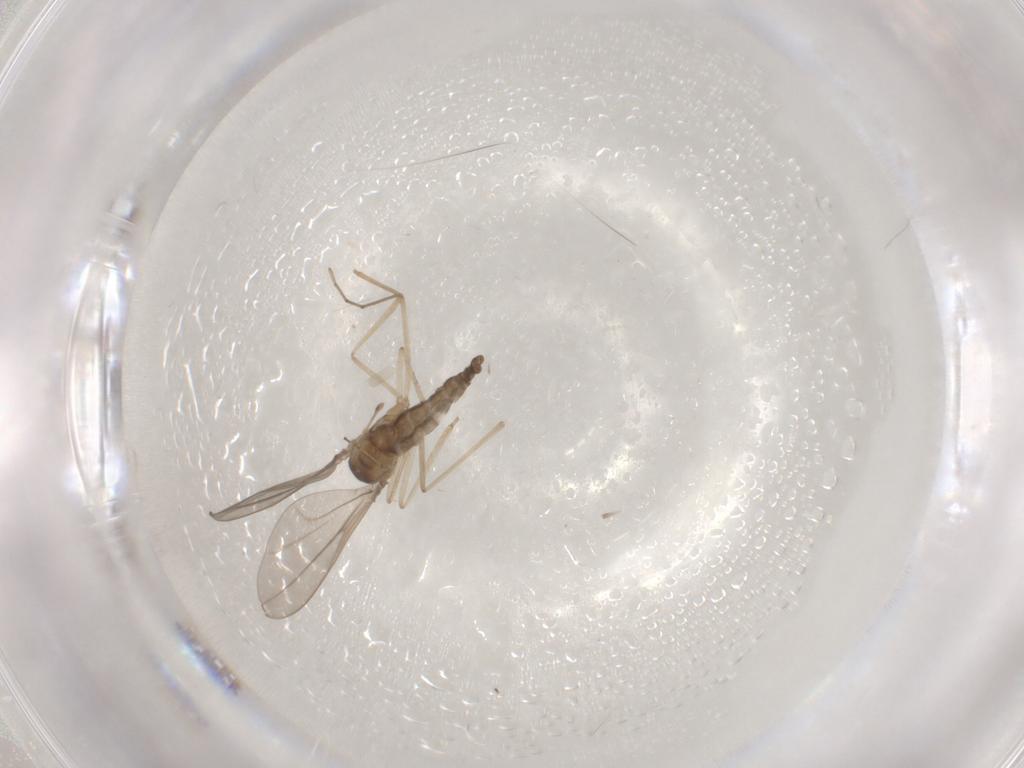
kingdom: Animalia
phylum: Arthropoda
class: Insecta
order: Diptera
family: Cecidomyiidae
